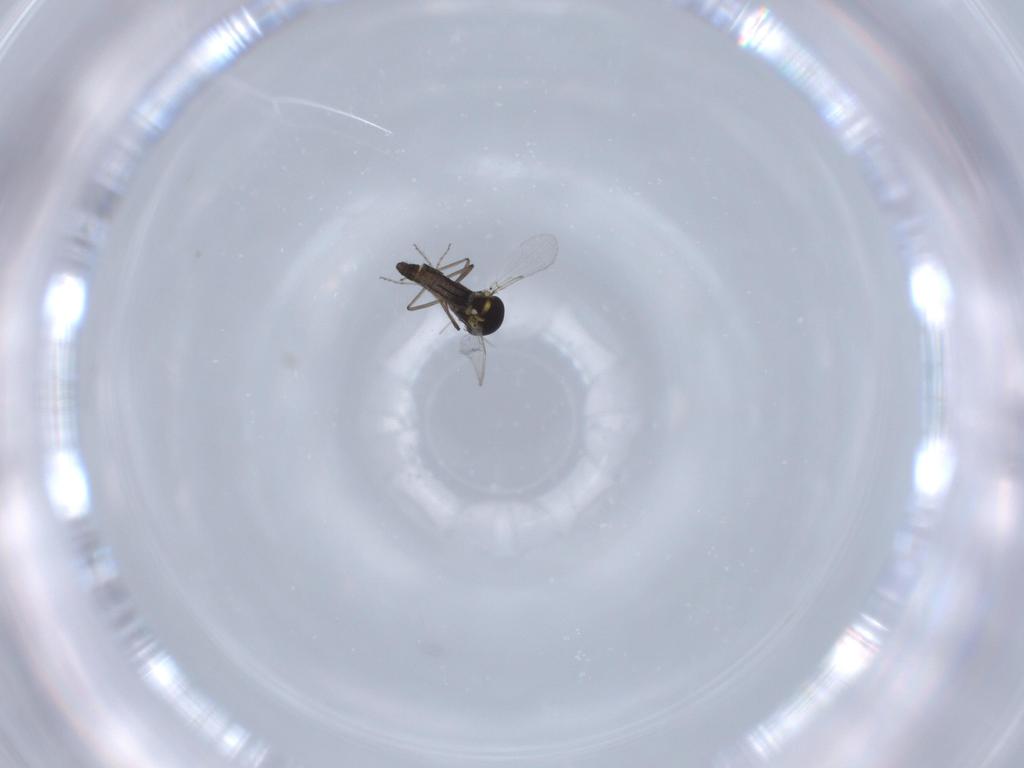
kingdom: Animalia
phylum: Arthropoda
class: Insecta
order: Diptera
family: Ceratopogonidae
